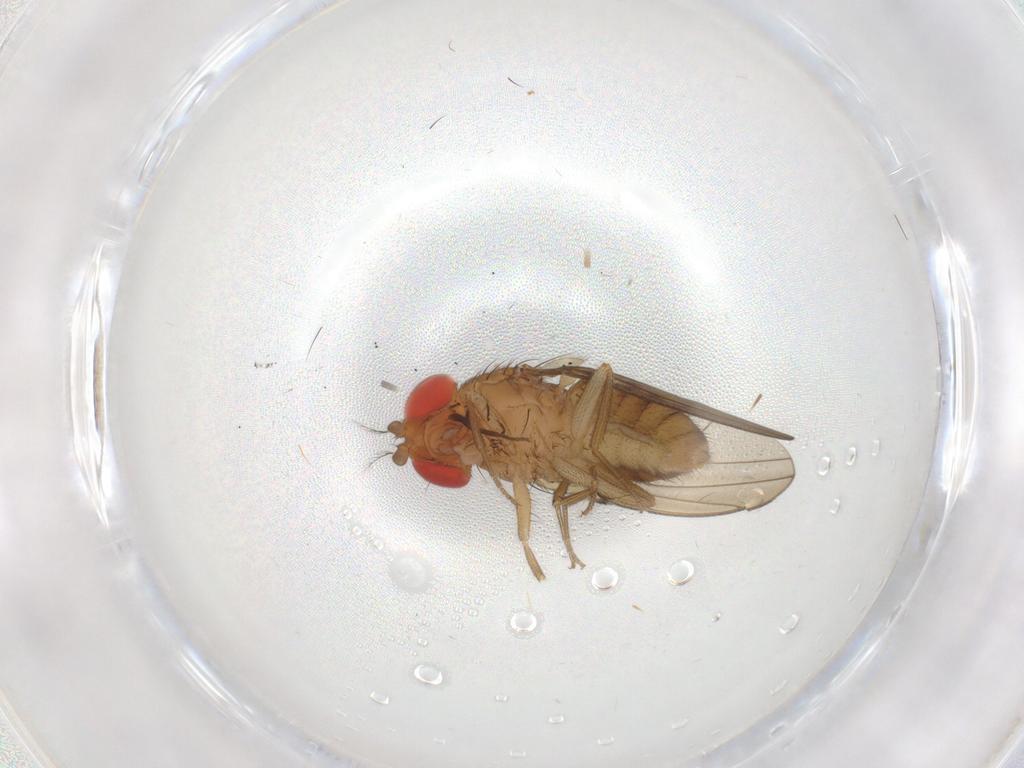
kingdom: Animalia
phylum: Arthropoda
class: Insecta
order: Diptera
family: Drosophilidae
